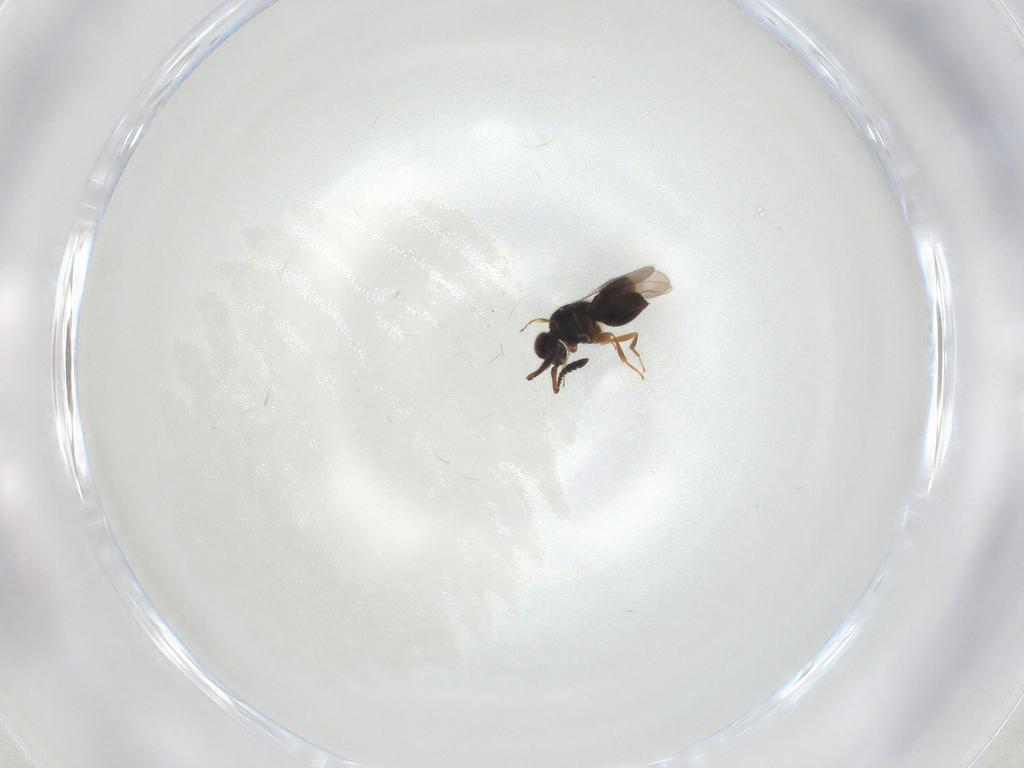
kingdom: Animalia
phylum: Arthropoda
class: Insecta
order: Hymenoptera
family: Ceraphronidae
